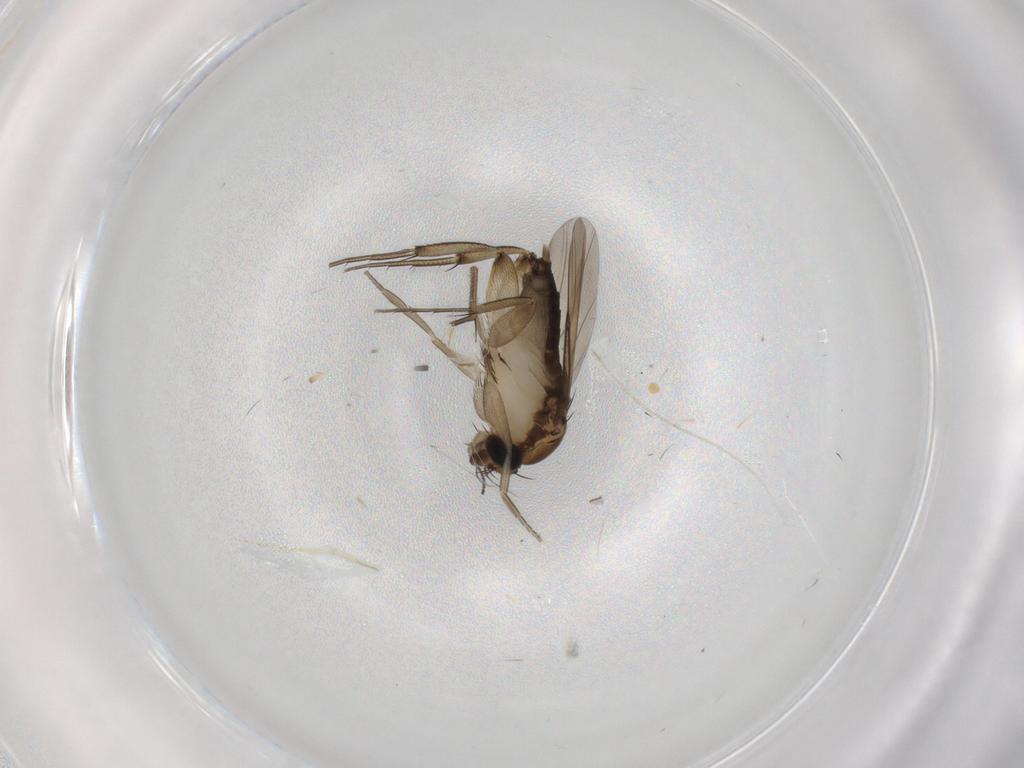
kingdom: Animalia
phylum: Arthropoda
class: Insecta
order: Diptera
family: Phoridae
